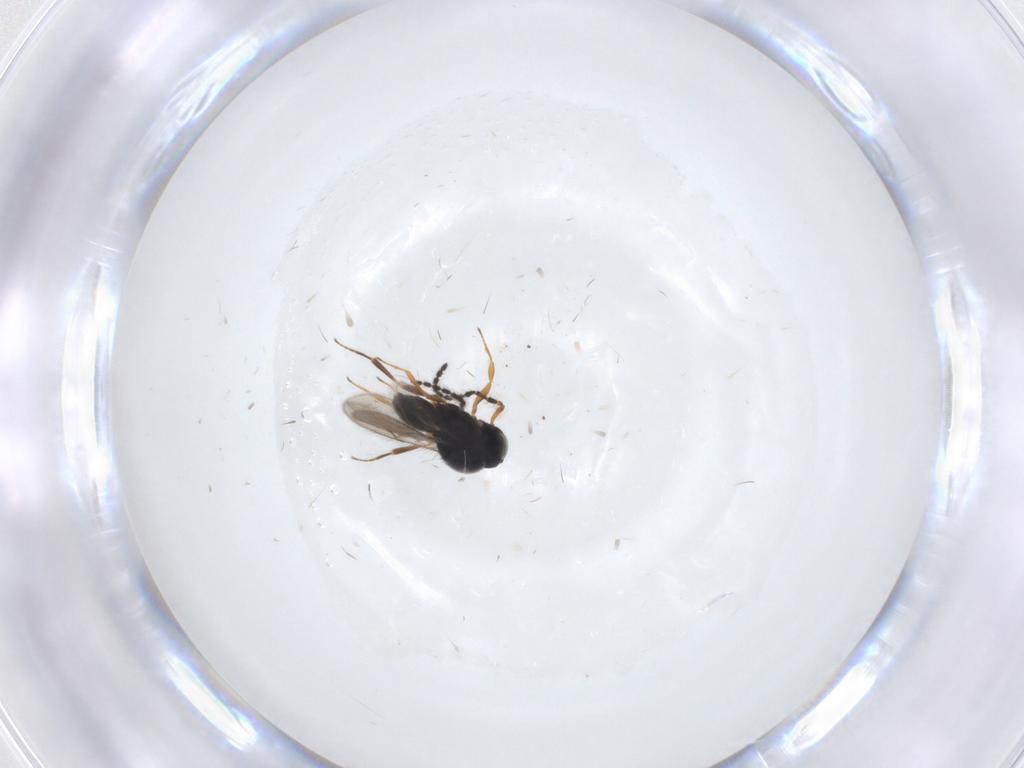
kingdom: Animalia
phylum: Arthropoda
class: Insecta
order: Hymenoptera
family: Scelionidae
